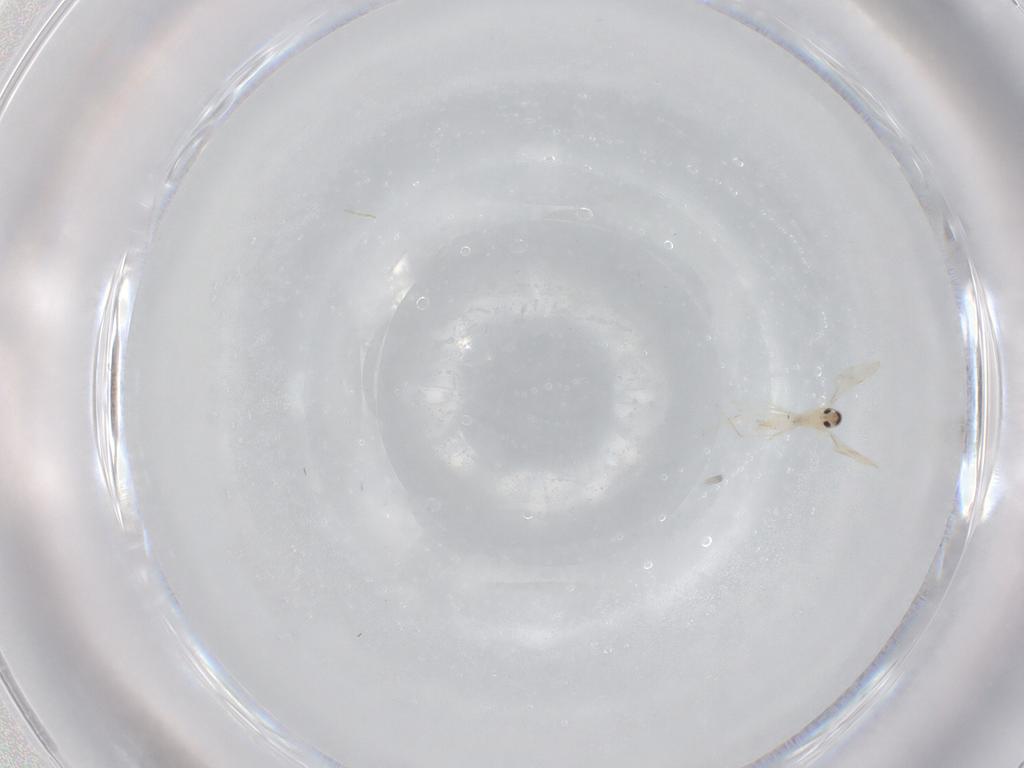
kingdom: Animalia
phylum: Arthropoda
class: Insecta
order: Diptera
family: Cecidomyiidae
